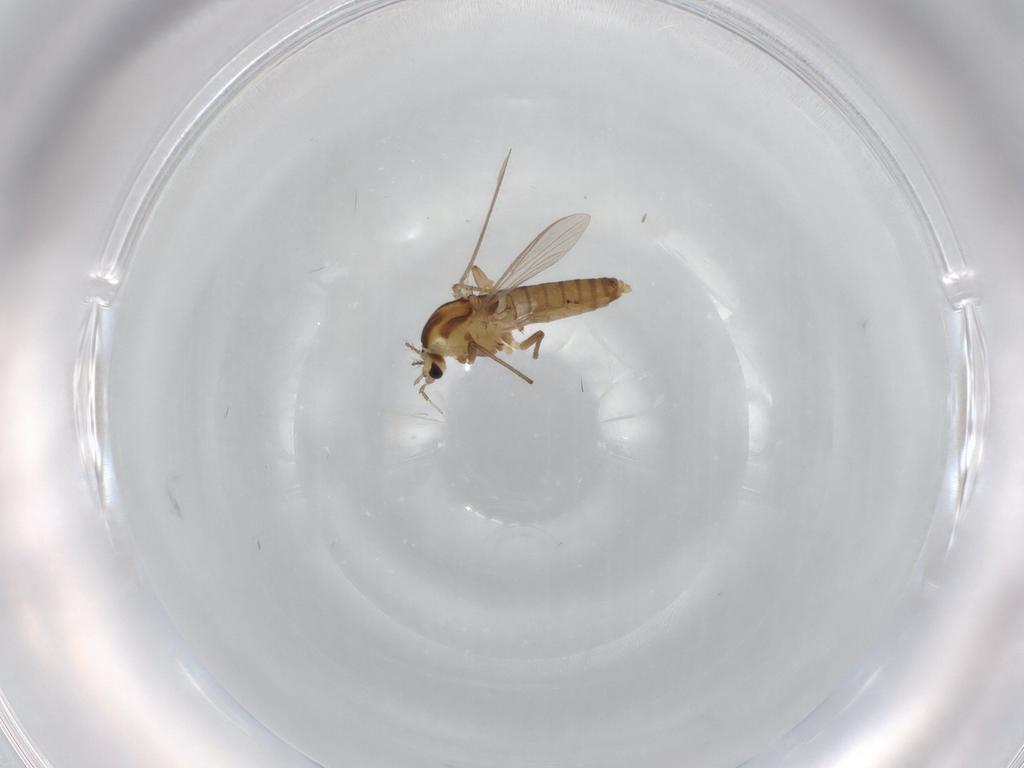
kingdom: Animalia
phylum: Arthropoda
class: Insecta
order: Diptera
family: Chironomidae
